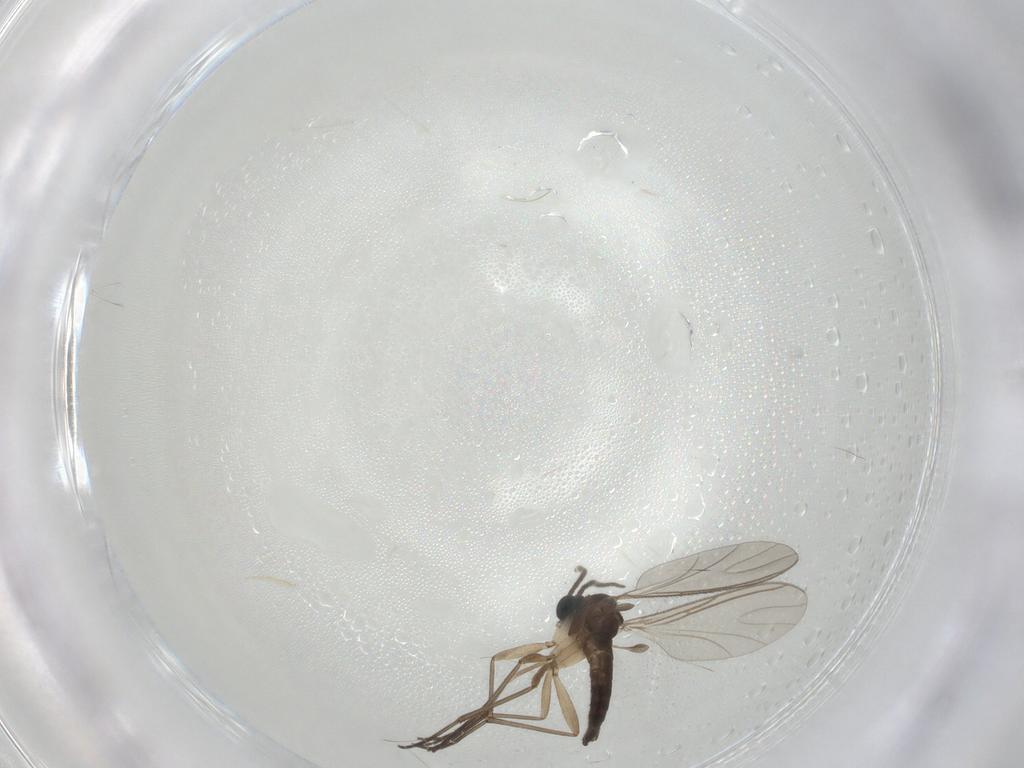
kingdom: Animalia
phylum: Arthropoda
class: Insecta
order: Diptera
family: Sciaridae
